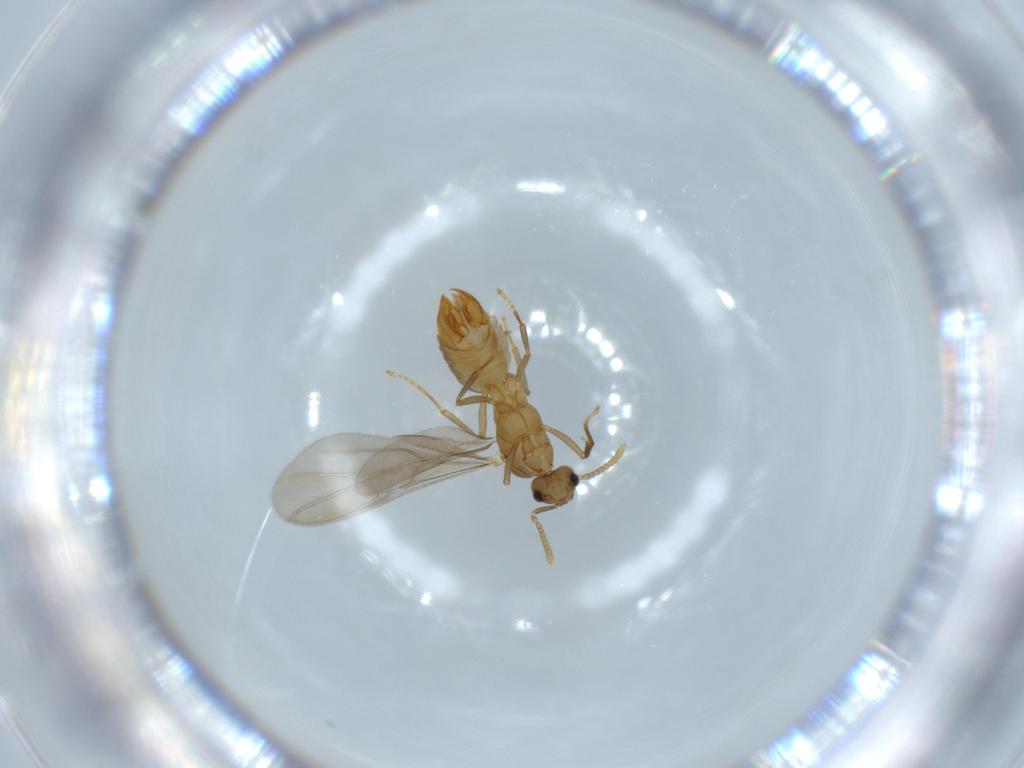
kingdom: Animalia
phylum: Arthropoda
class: Insecta
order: Hymenoptera
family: Formicidae
